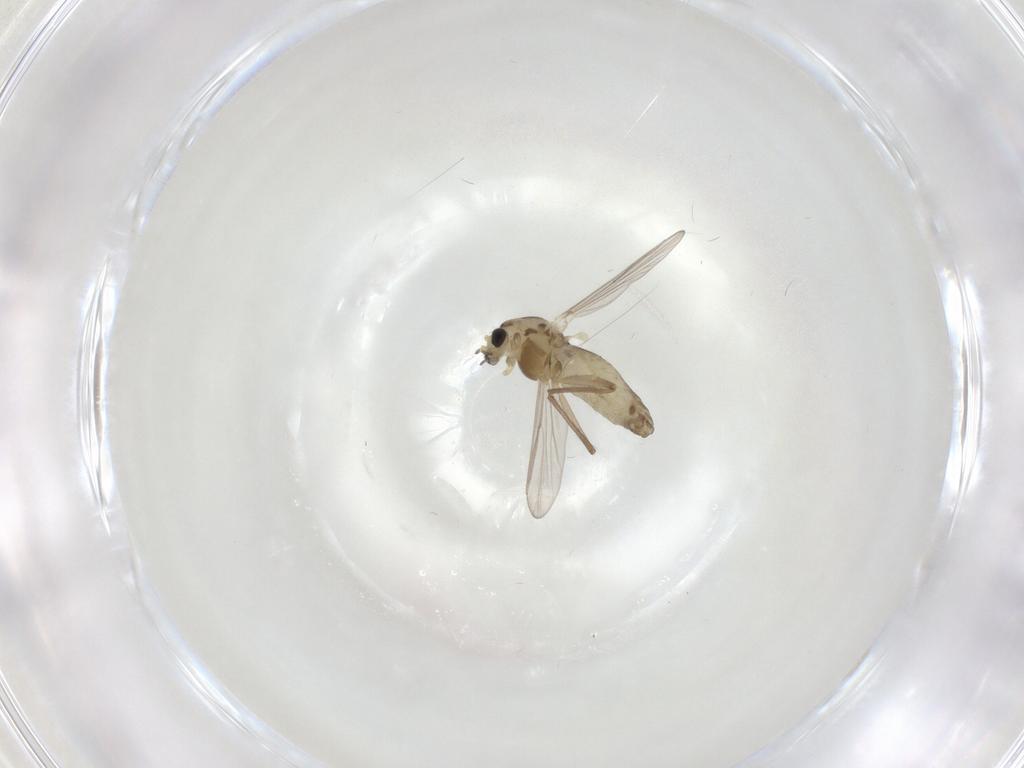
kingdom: Animalia
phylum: Arthropoda
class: Insecta
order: Diptera
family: Chironomidae
